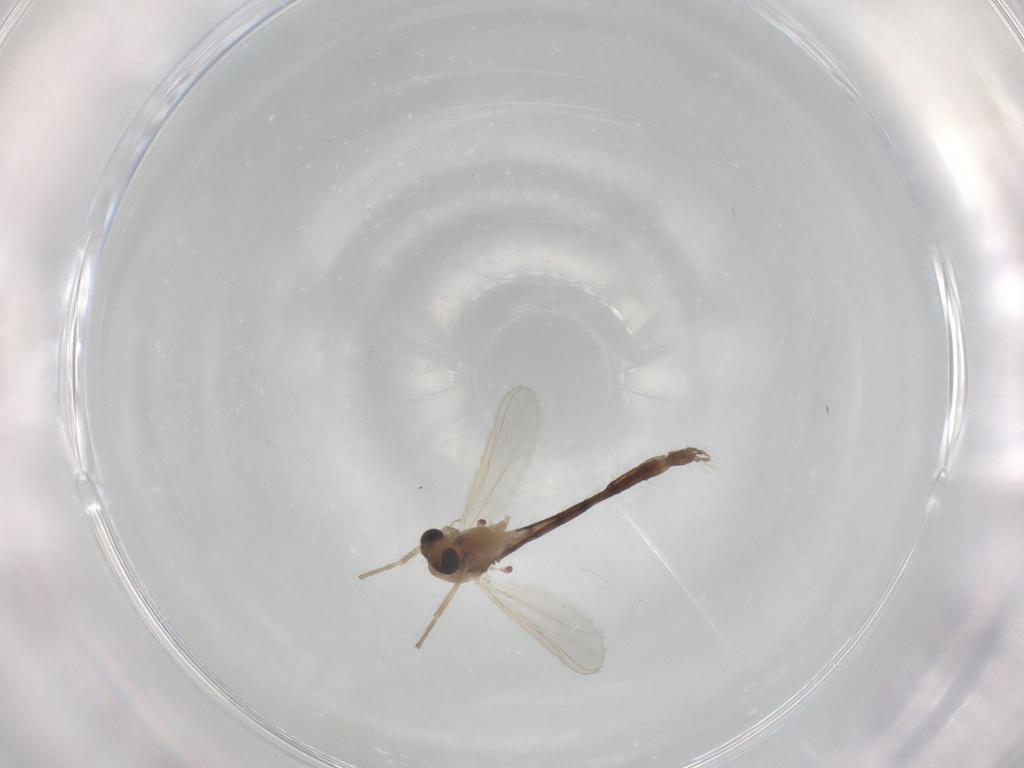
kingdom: Animalia
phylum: Arthropoda
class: Insecta
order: Diptera
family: Chironomidae
